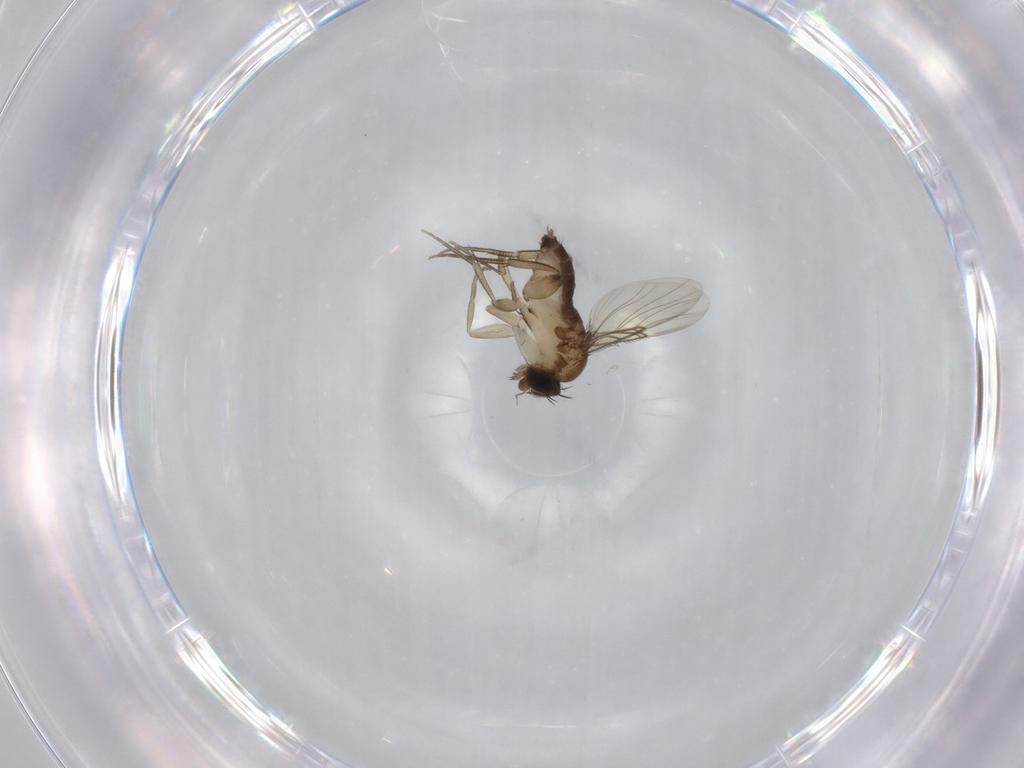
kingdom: Animalia
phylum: Arthropoda
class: Insecta
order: Diptera
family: Phoridae
